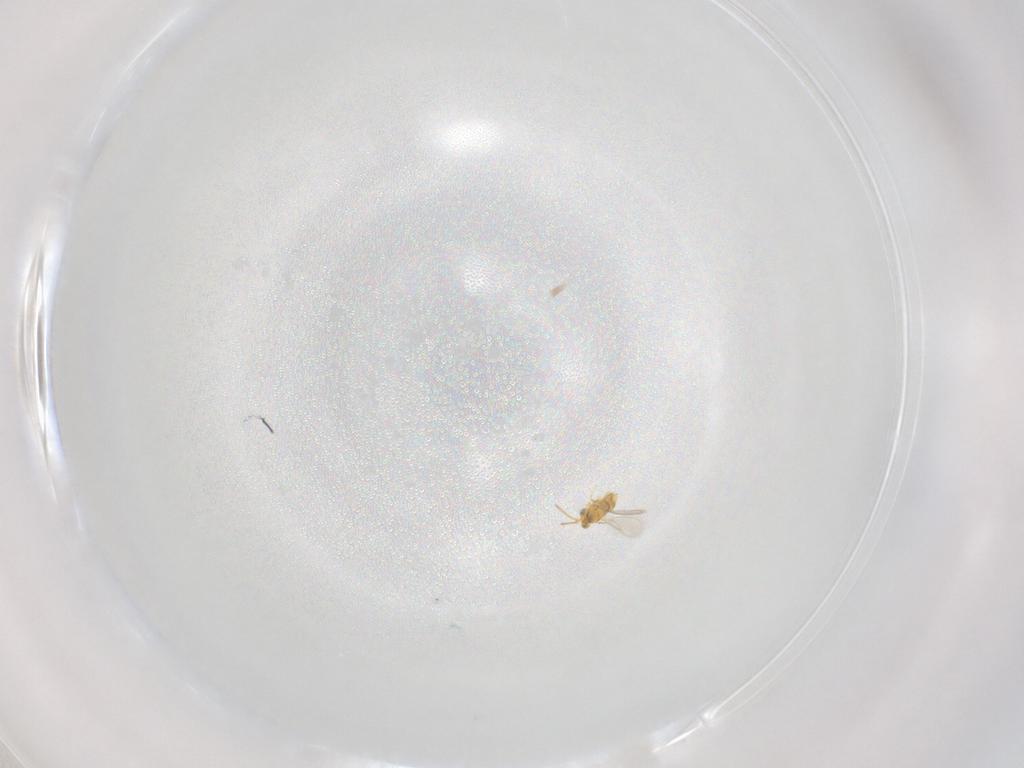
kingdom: Animalia
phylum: Arthropoda
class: Insecta
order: Hymenoptera
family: Aphelinidae
